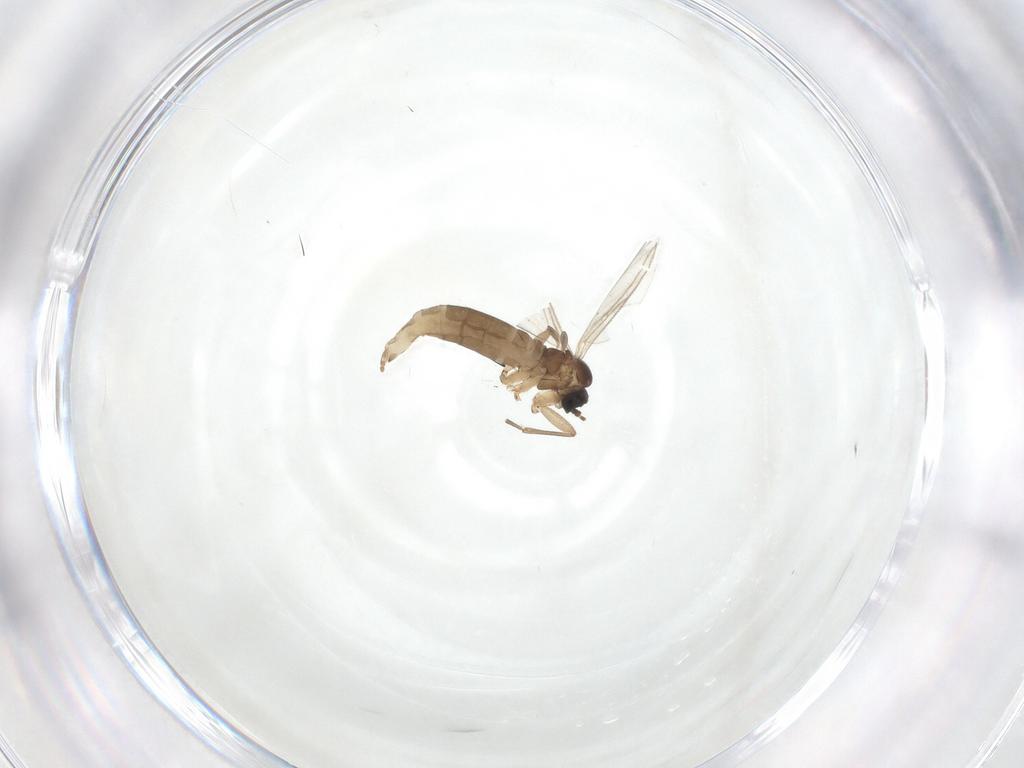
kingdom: Animalia
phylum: Arthropoda
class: Insecta
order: Diptera
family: Sciaridae
